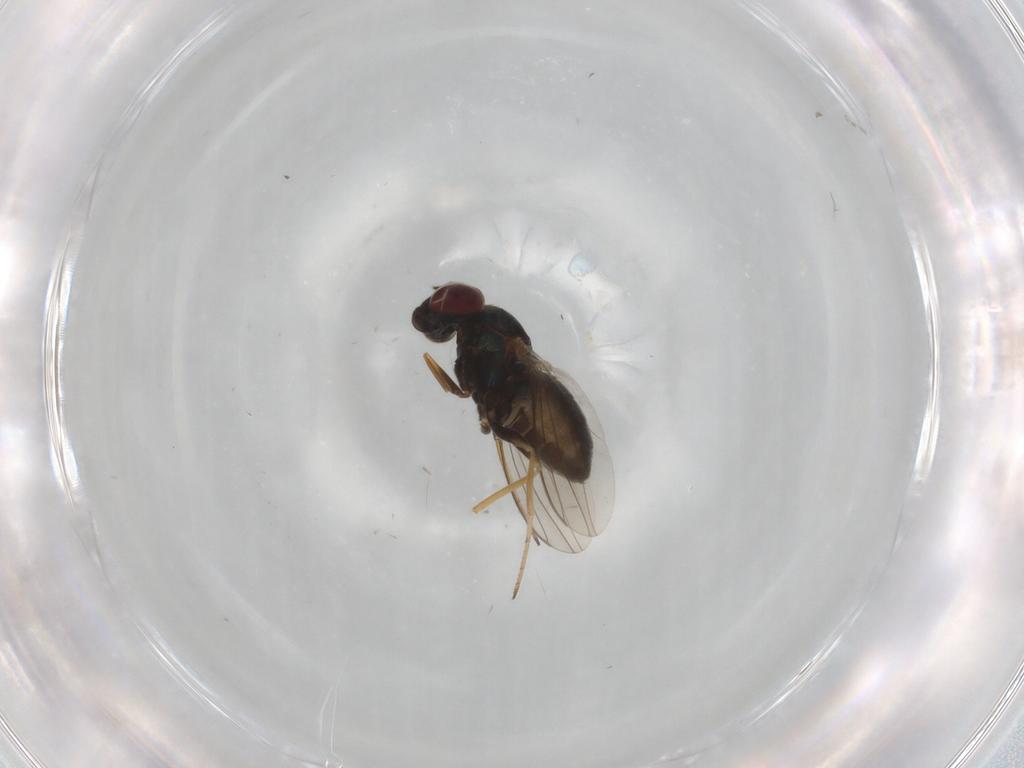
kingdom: Animalia
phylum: Arthropoda
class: Insecta
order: Diptera
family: Dolichopodidae
